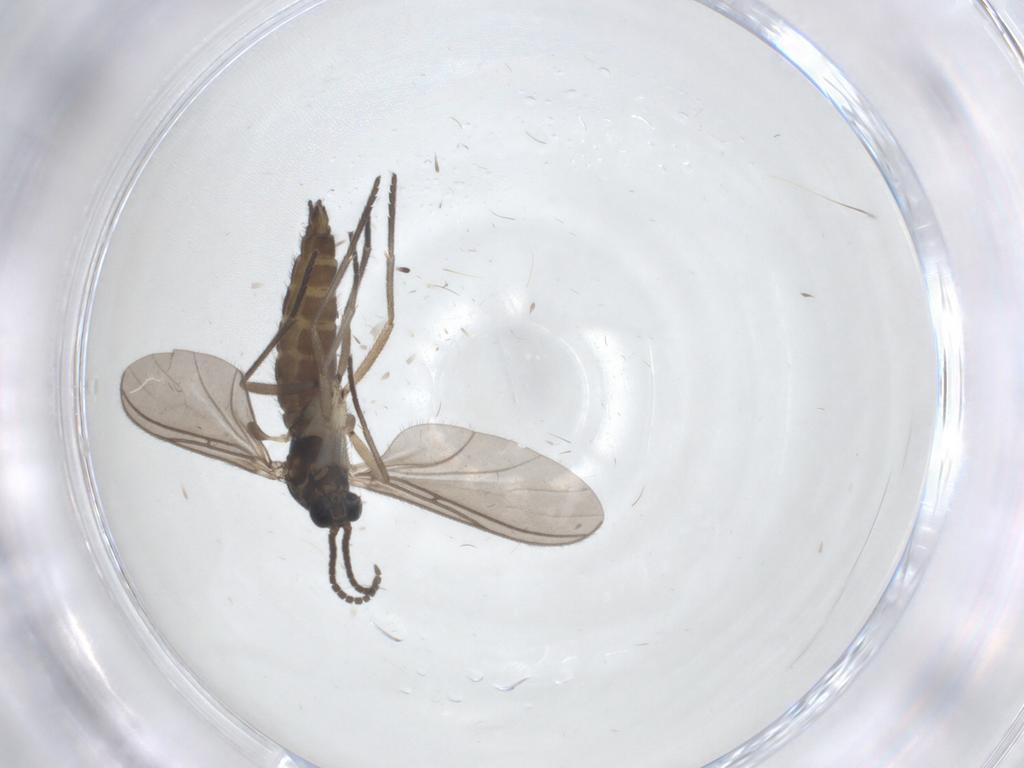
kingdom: Animalia
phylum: Arthropoda
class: Insecta
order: Diptera
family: Sciaridae
